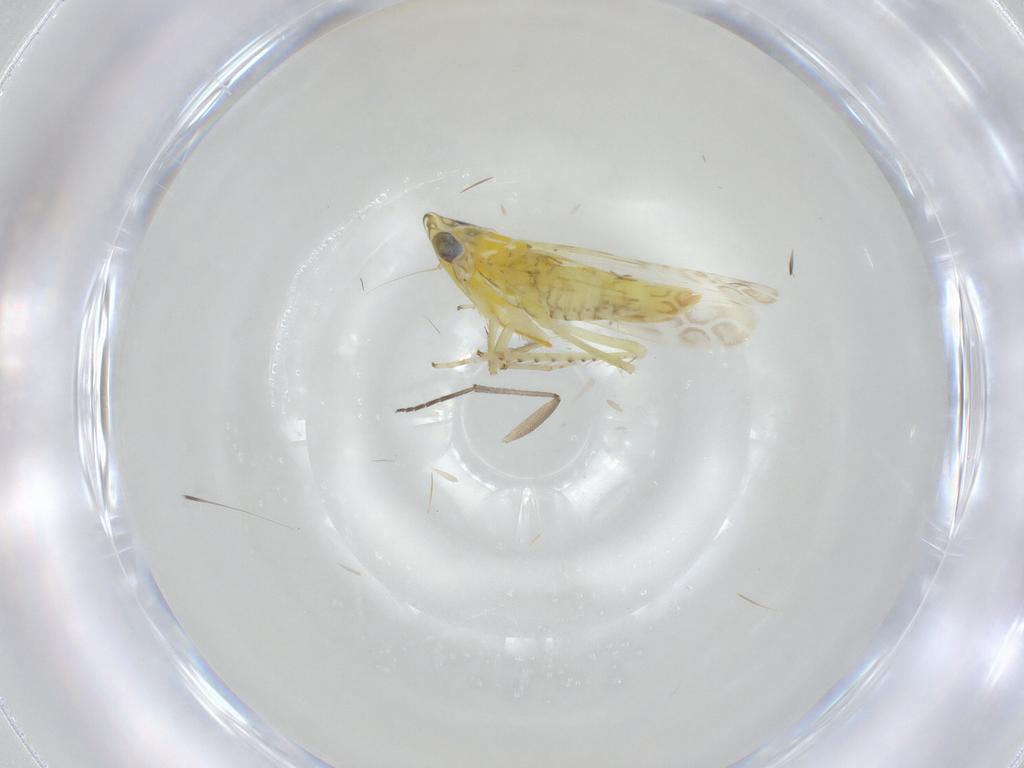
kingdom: Animalia
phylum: Arthropoda
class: Insecta
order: Hemiptera
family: Cicadellidae
